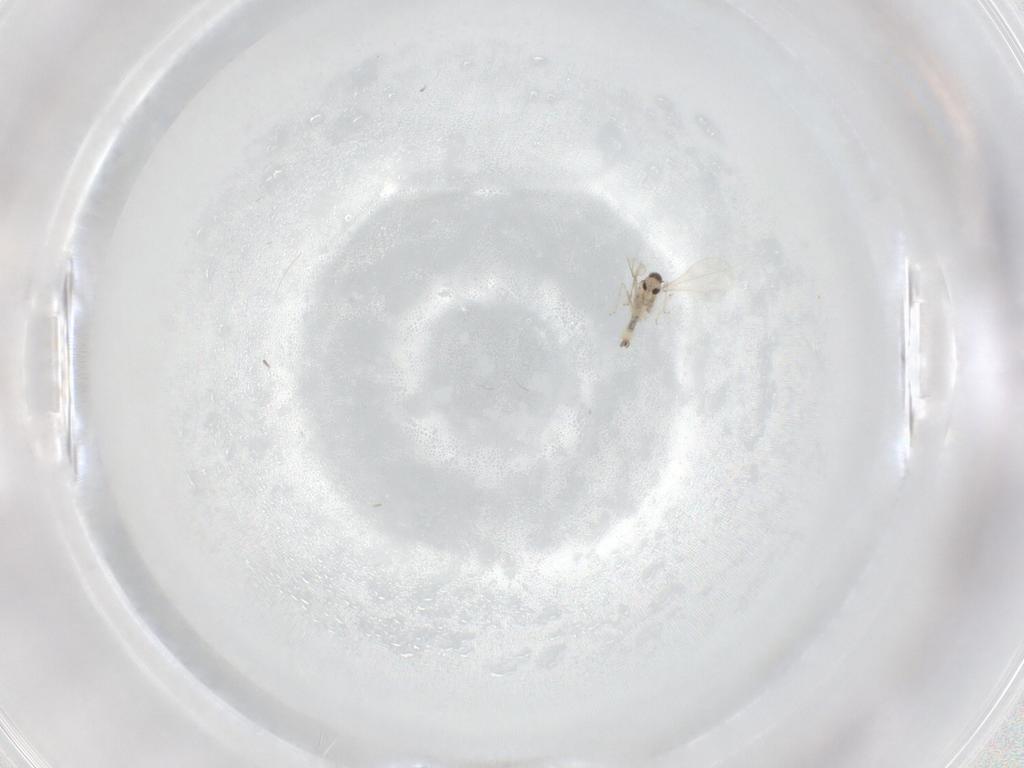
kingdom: Animalia
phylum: Arthropoda
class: Insecta
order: Diptera
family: Cecidomyiidae
